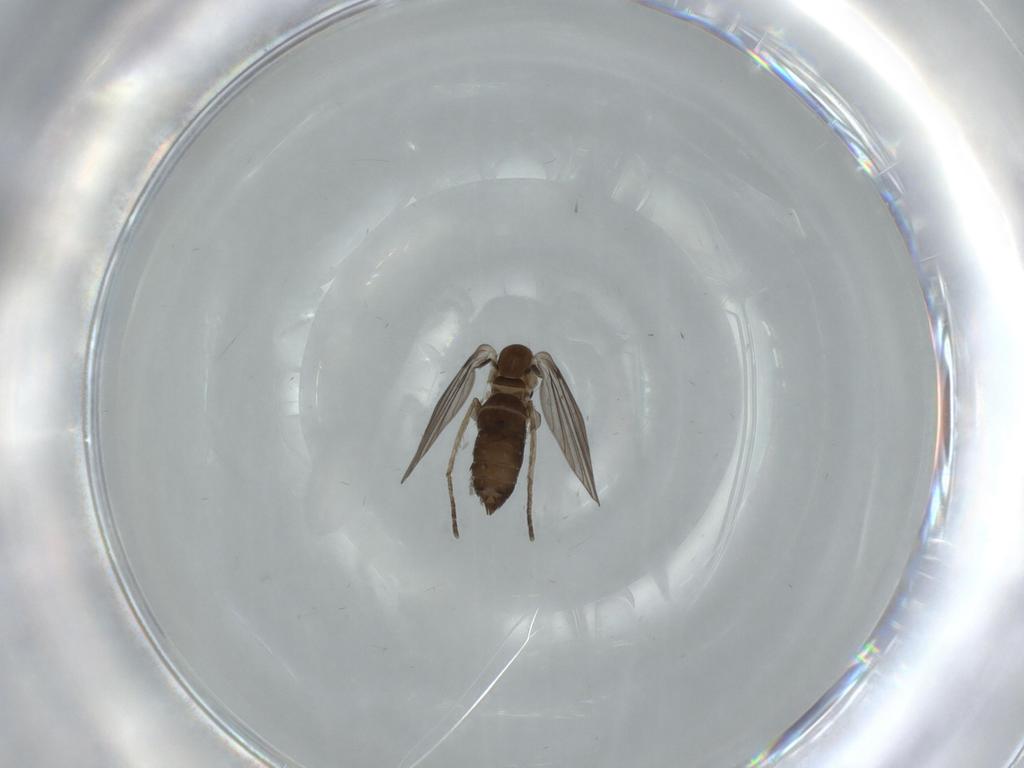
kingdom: Animalia
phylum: Arthropoda
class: Insecta
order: Diptera
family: Psychodidae
